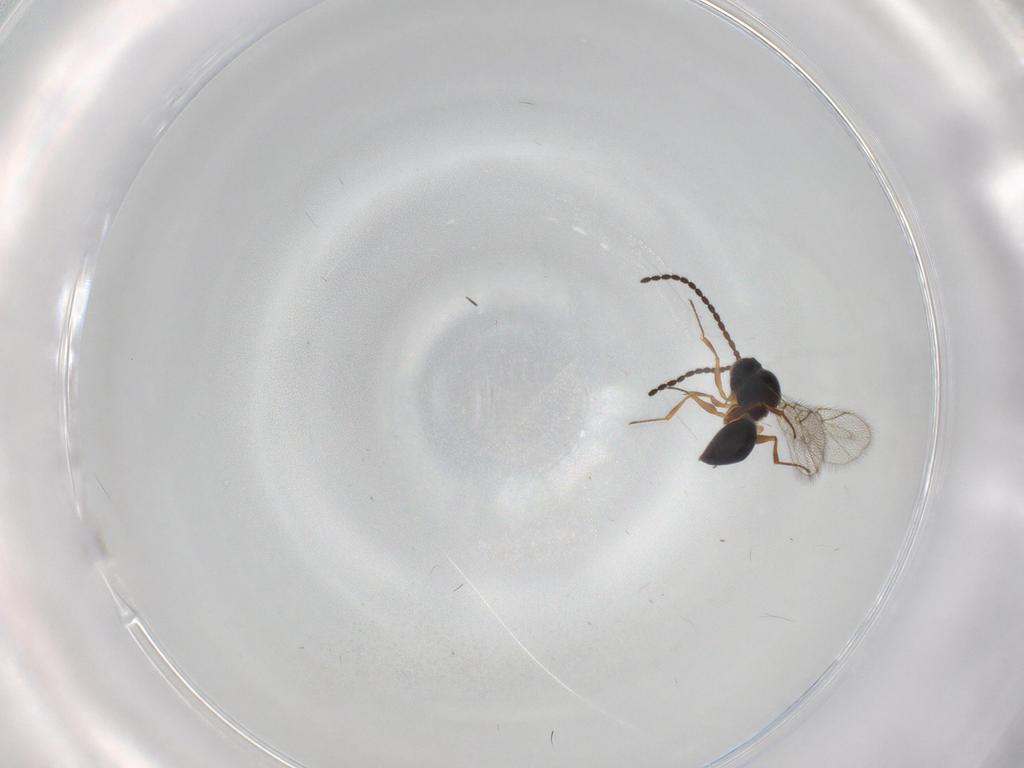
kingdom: Animalia
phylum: Arthropoda
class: Insecta
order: Hymenoptera
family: Figitidae
